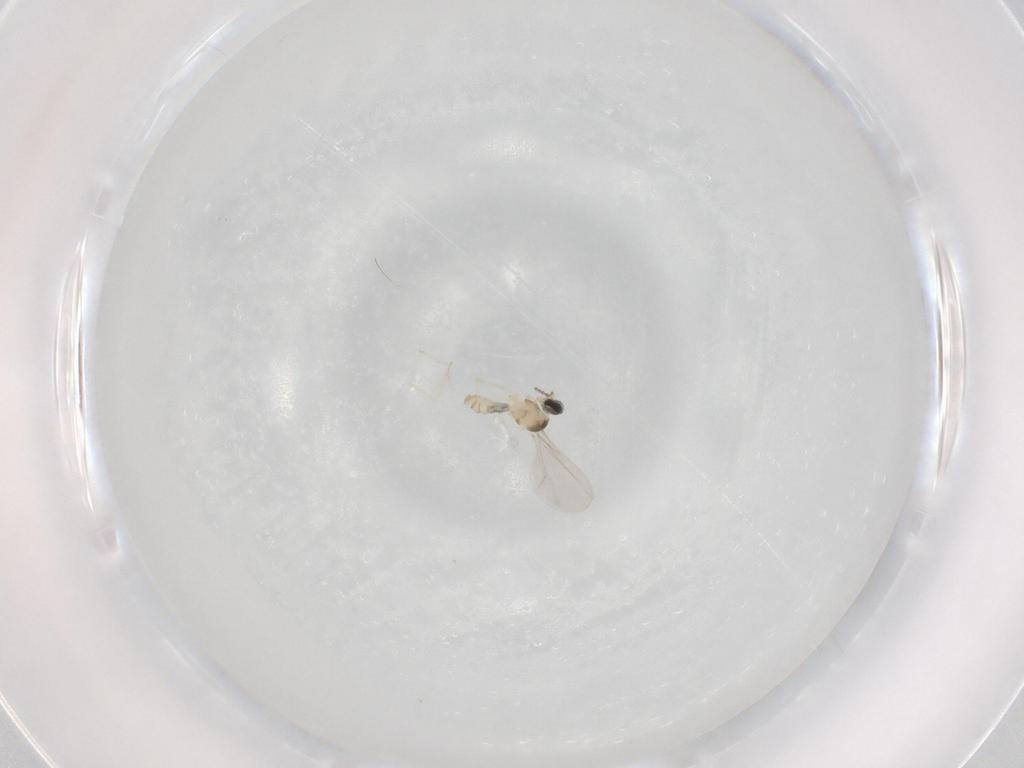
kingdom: Animalia
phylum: Arthropoda
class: Insecta
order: Diptera
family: Cecidomyiidae
